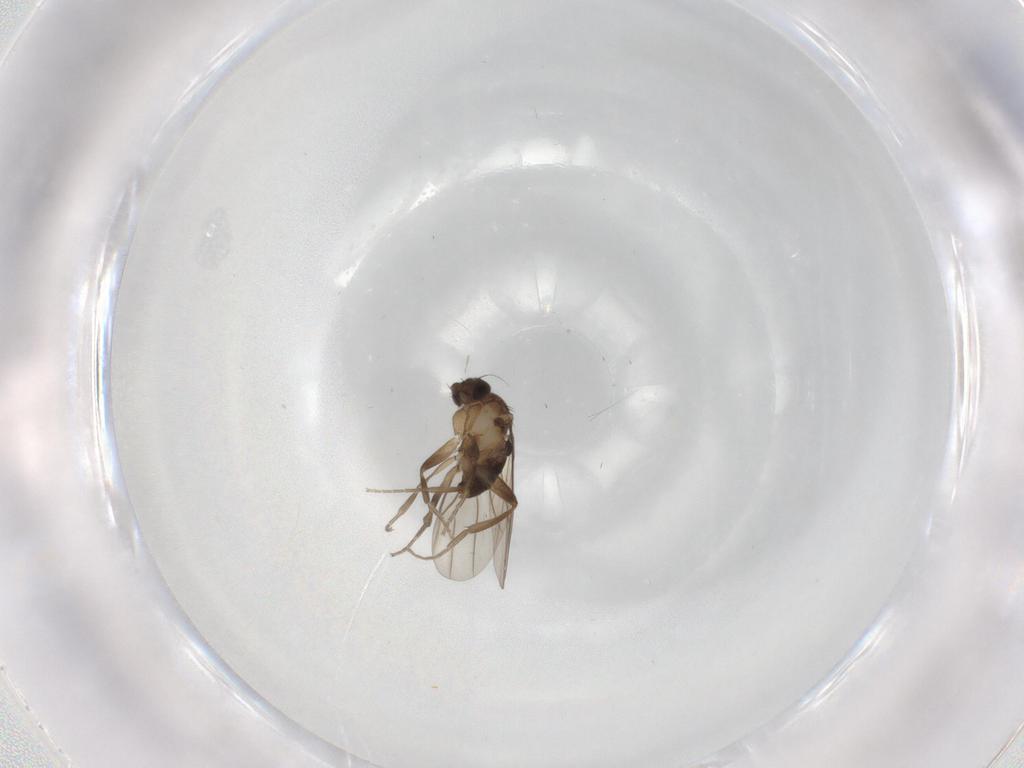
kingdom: Animalia
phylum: Arthropoda
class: Insecta
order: Diptera
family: Phoridae
